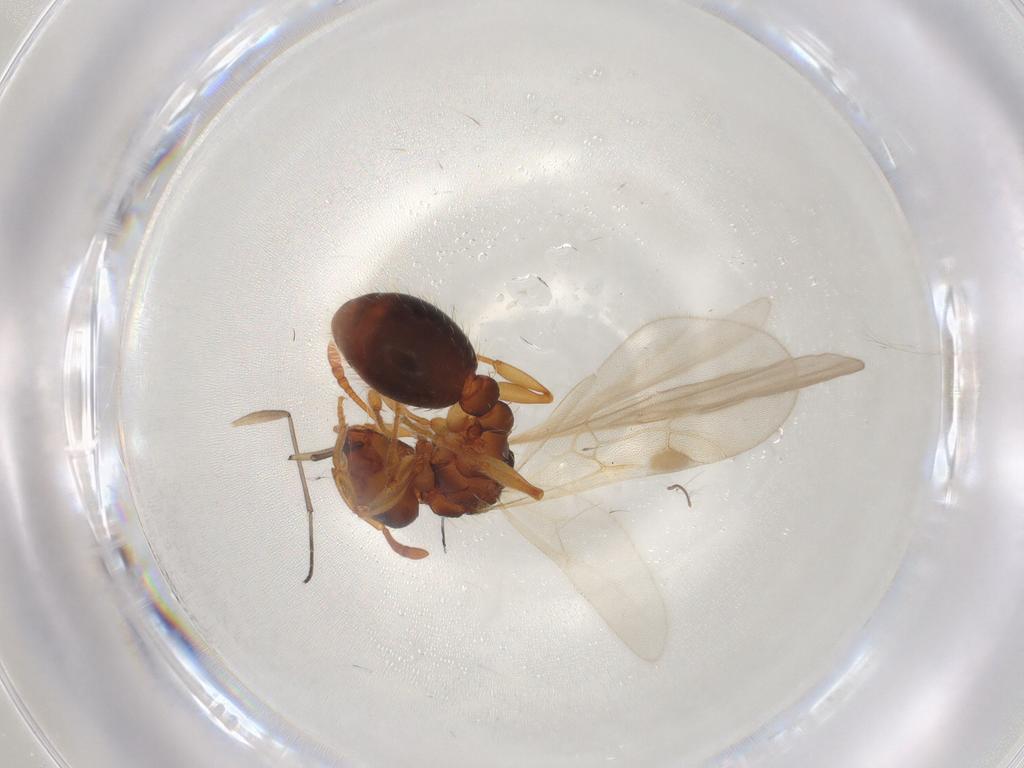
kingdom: Animalia
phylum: Arthropoda
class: Insecta
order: Hymenoptera
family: Formicidae
